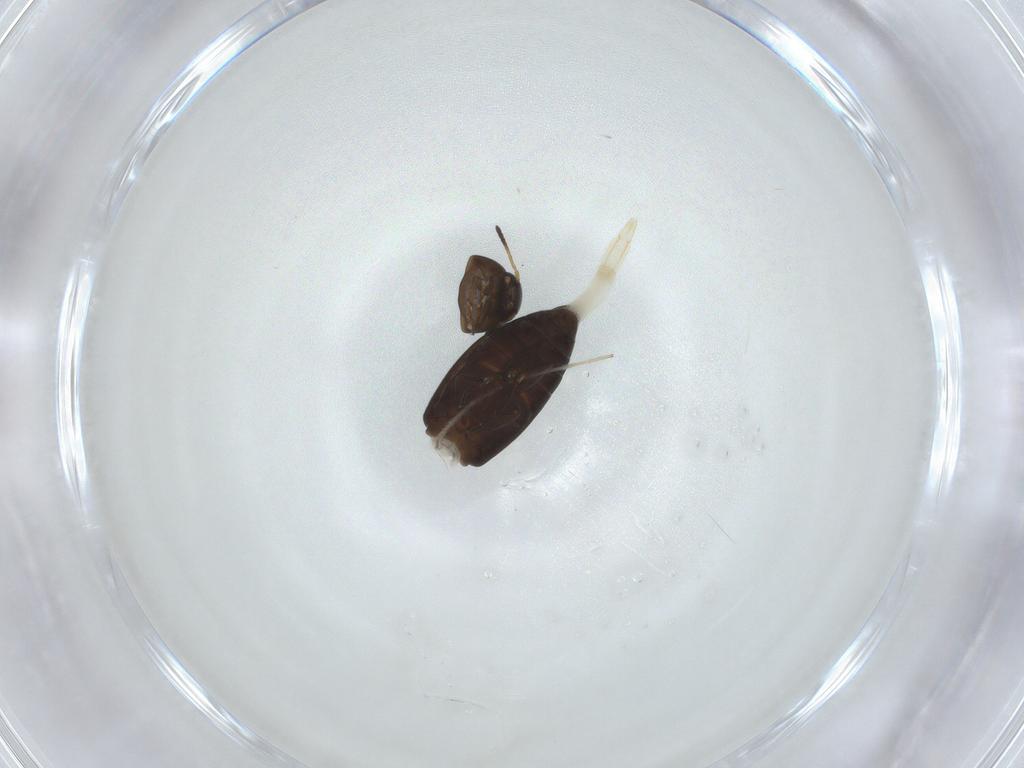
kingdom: Animalia
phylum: Arthropoda
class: Insecta
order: Coleoptera
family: Scraptiidae
